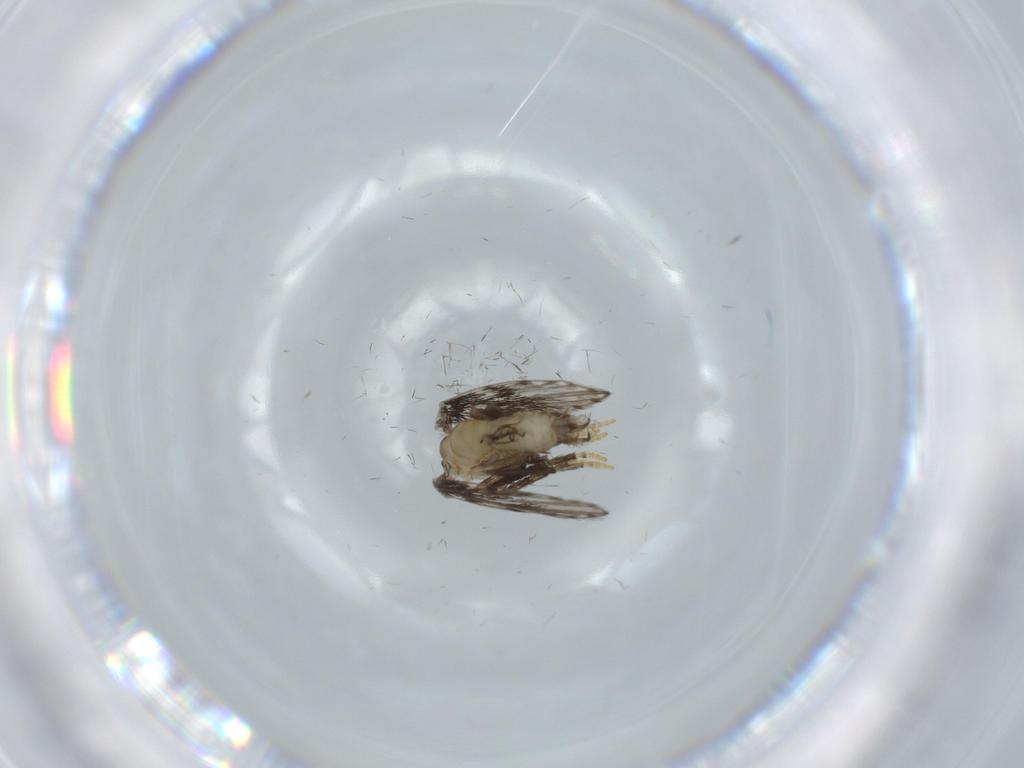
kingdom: Animalia
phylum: Arthropoda
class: Insecta
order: Diptera
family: Psychodidae
